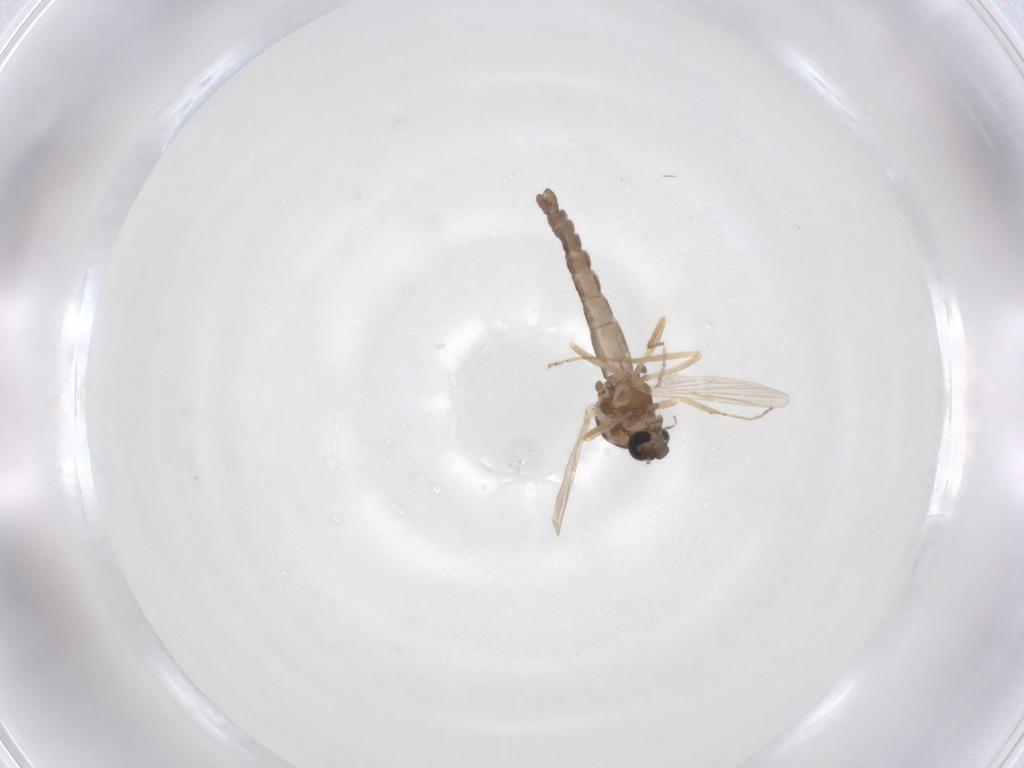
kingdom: Animalia
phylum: Arthropoda
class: Insecta
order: Diptera
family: Ceratopogonidae
